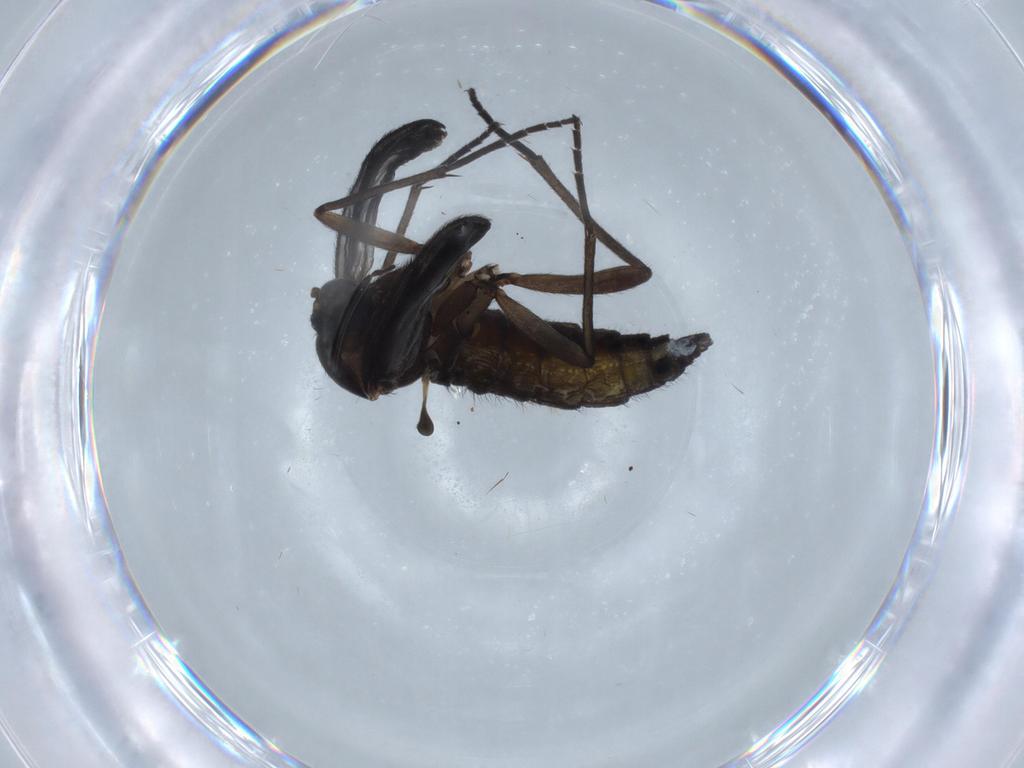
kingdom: Animalia
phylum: Arthropoda
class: Insecta
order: Diptera
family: Sciaridae
